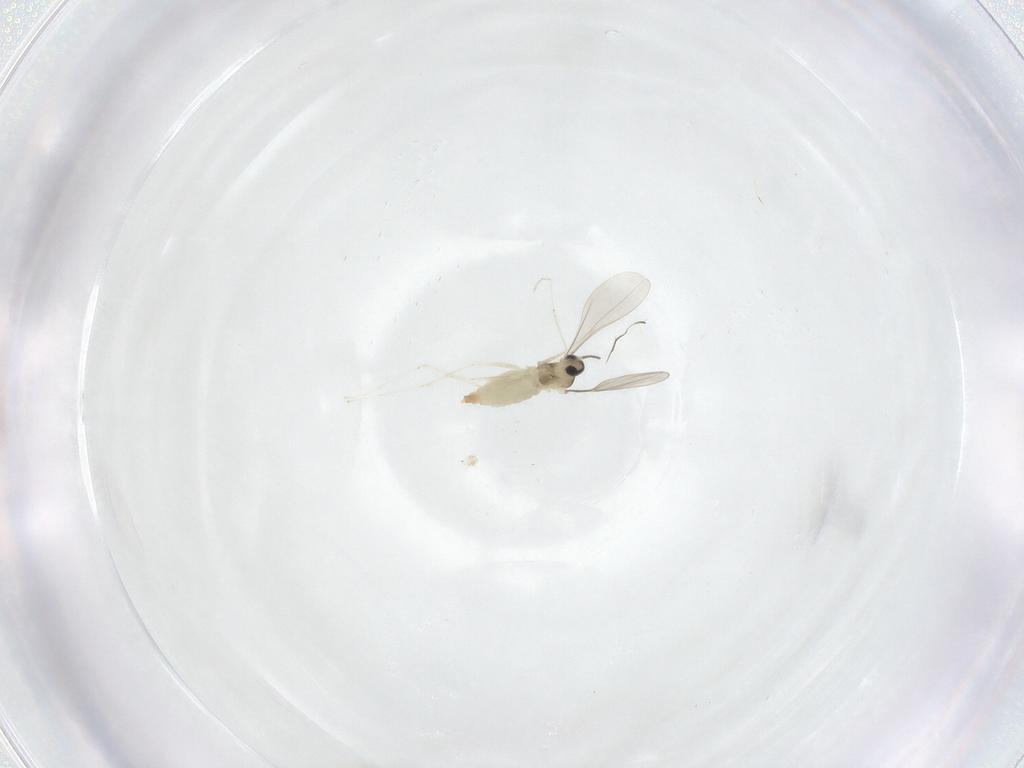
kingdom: Animalia
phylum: Arthropoda
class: Insecta
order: Diptera
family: Cecidomyiidae
